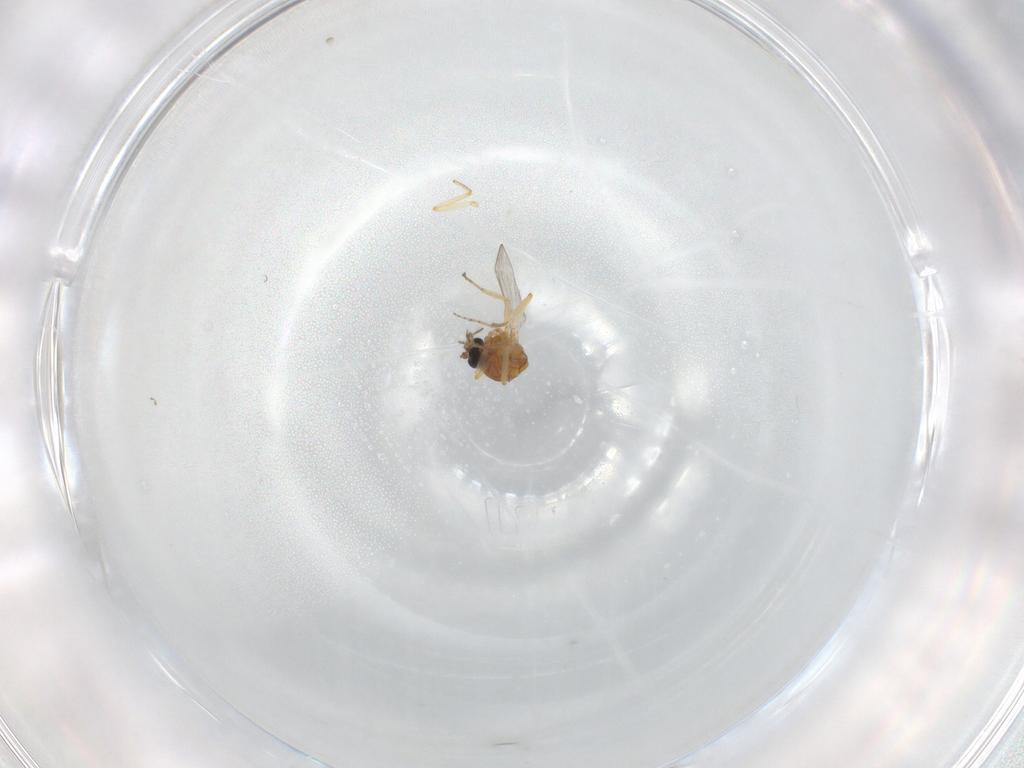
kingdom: Animalia
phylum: Arthropoda
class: Insecta
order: Diptera
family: Ceratopogonidae
